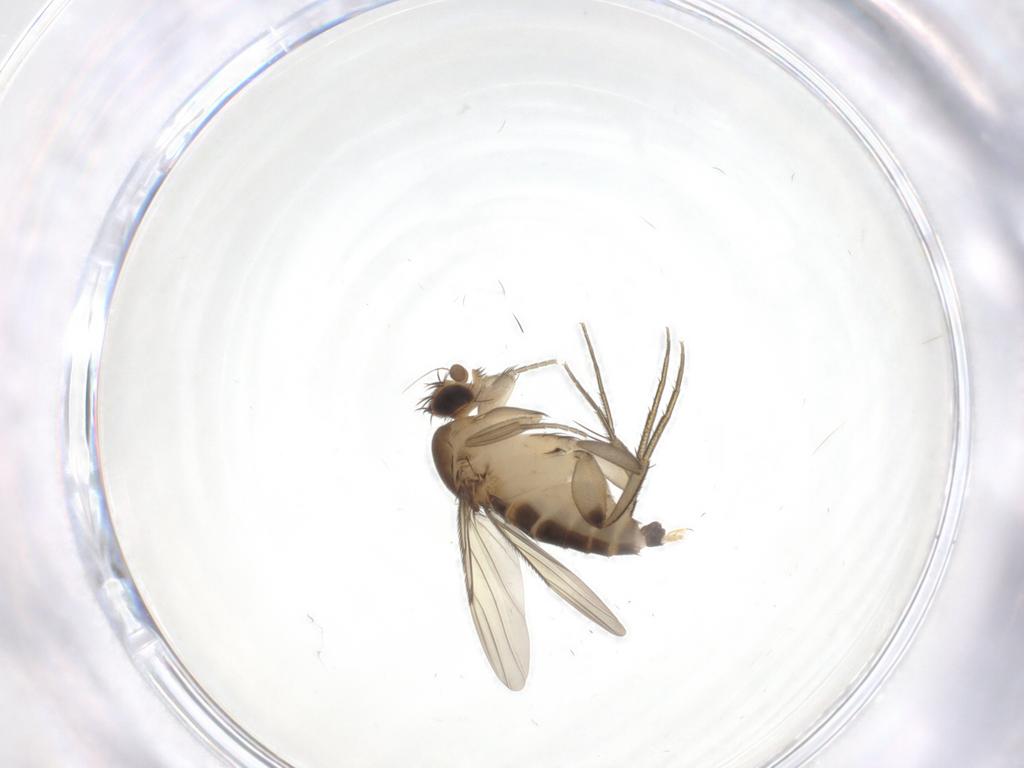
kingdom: Animalia
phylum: Arthropoda
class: Insecta
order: Diptera
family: Phoridae
